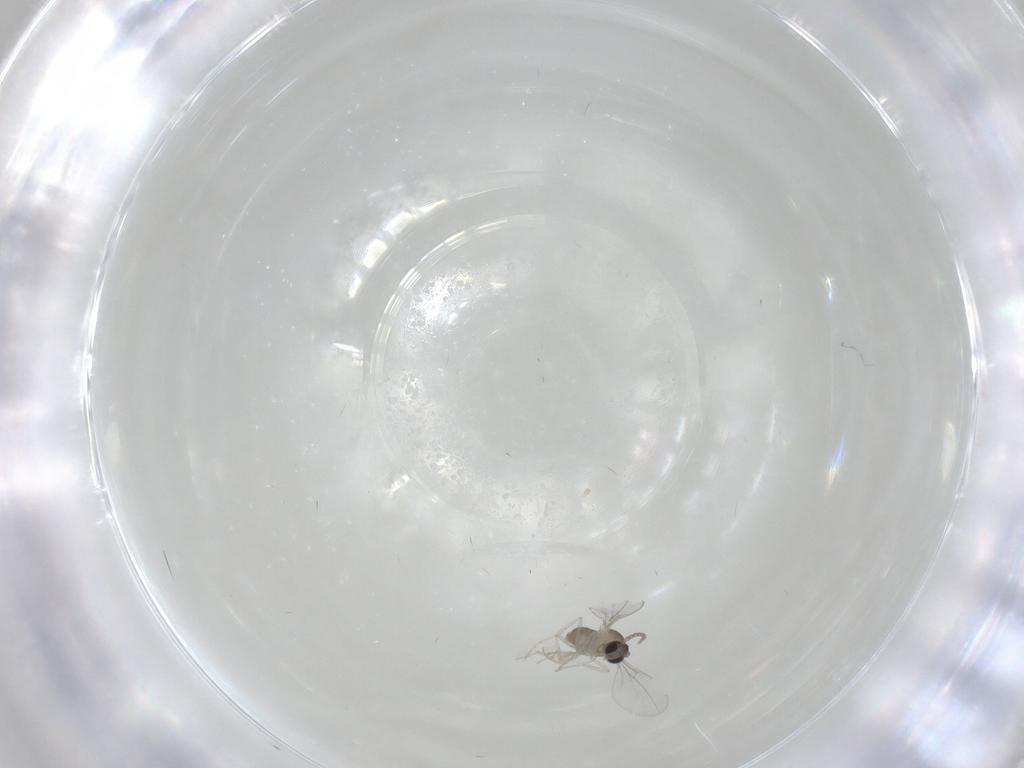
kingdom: Animalia
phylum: Arthropoda
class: Insecta
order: Diptera
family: Cecidomyiidae
